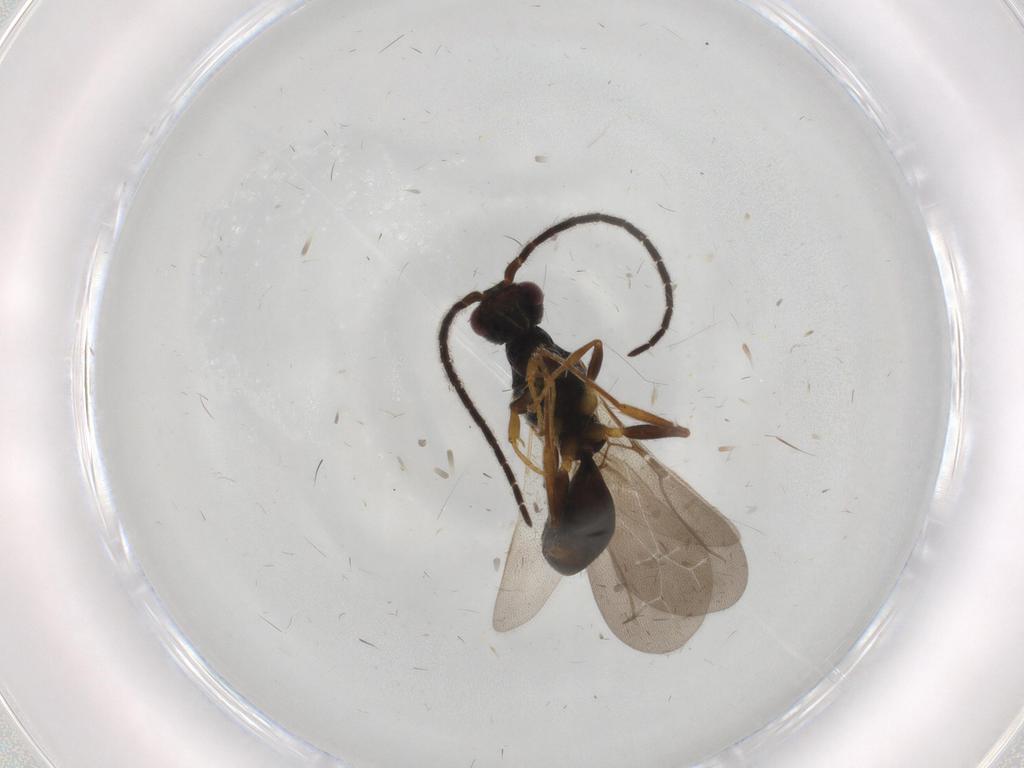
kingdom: Animalia
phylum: Arthropoda
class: Insecta
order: Hymenoptera
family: Bethylidae
